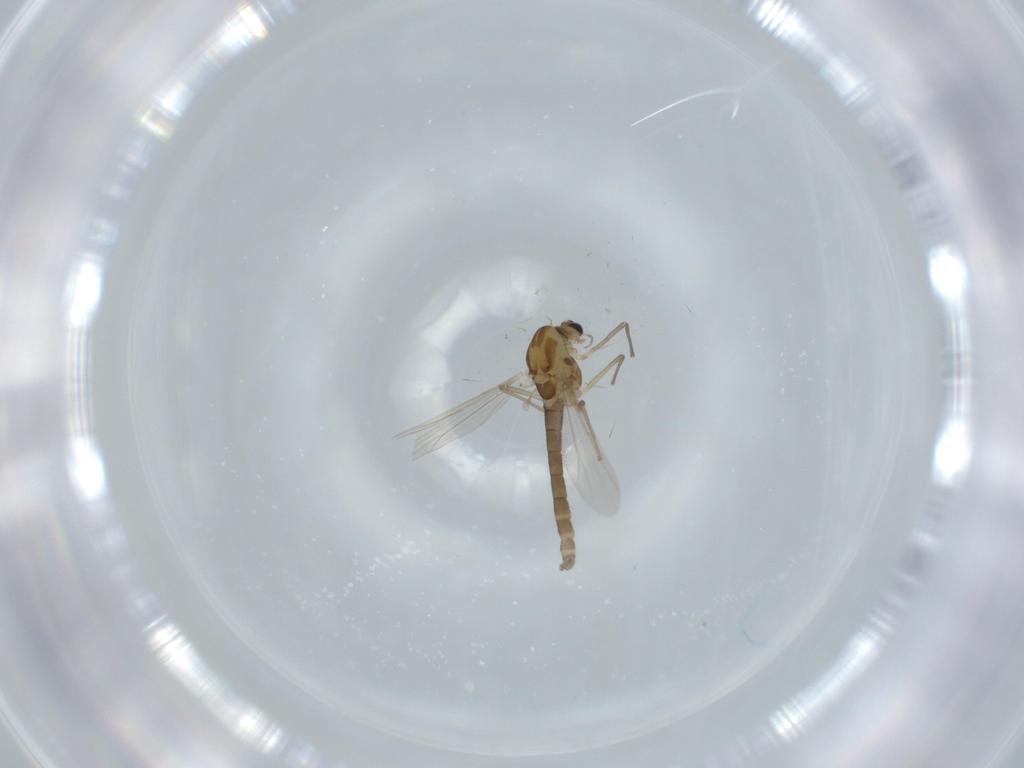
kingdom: Animalia
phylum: Arthropoda
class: Insecta
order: Diptera
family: Chironomidae
